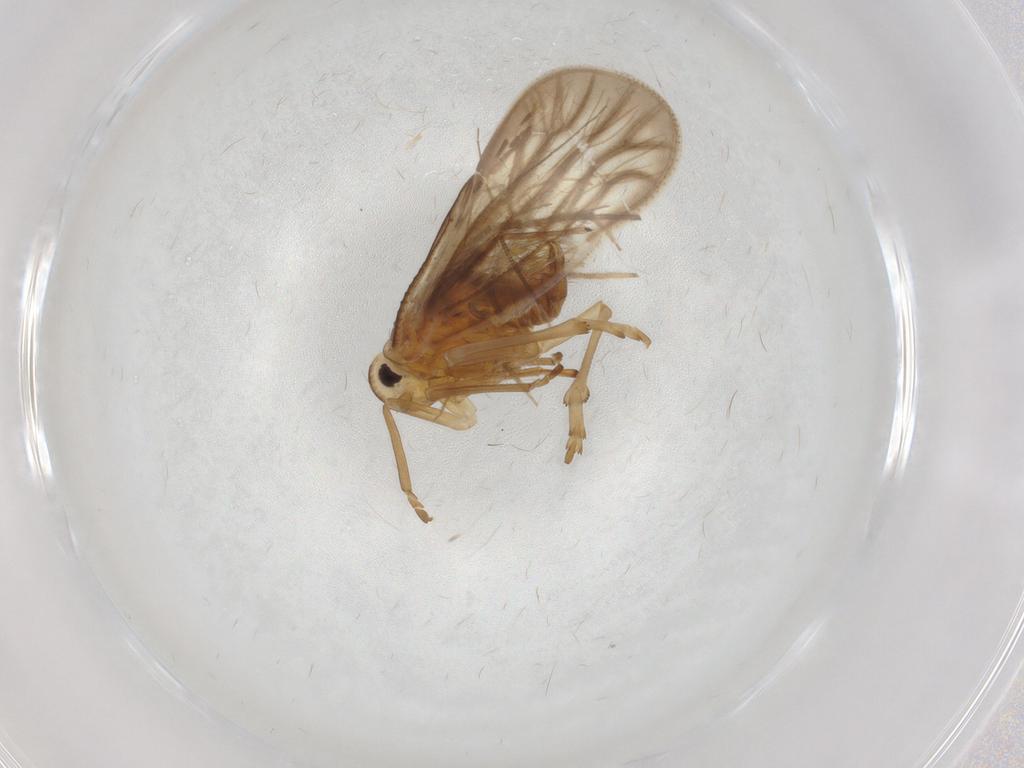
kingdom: Animalia
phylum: Arthropoda
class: Insecta
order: Hemiptera
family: Meenoplidae
